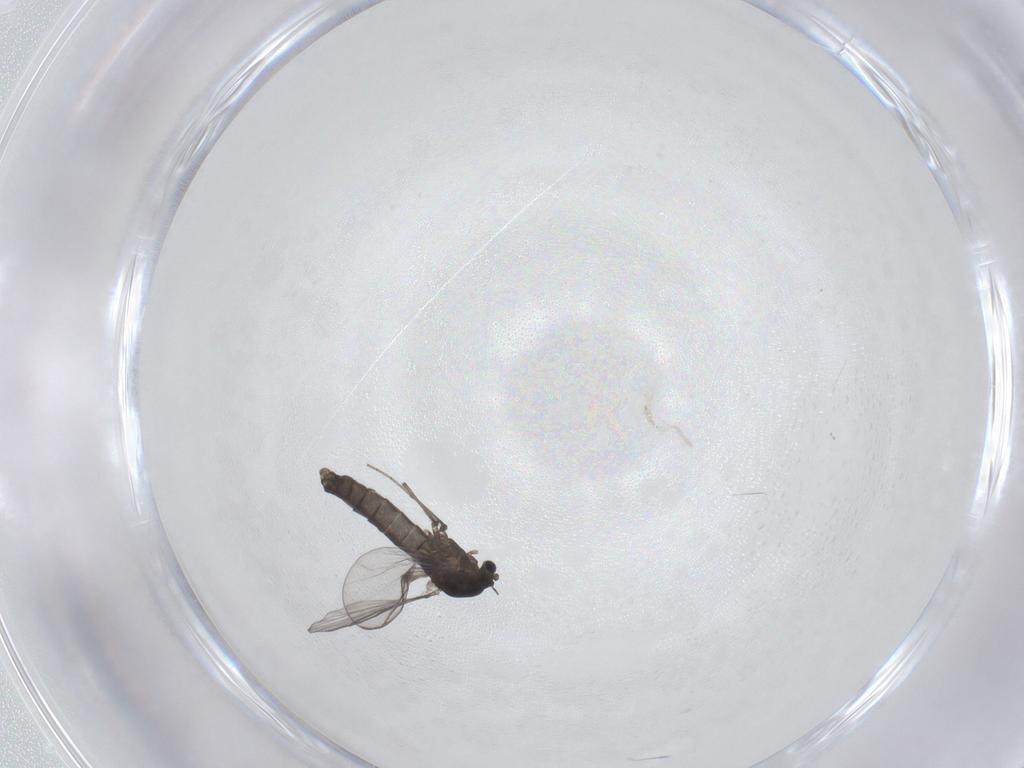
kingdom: Animalia
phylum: Arthropoda
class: Insecta
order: Diptera
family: Chironomidae
